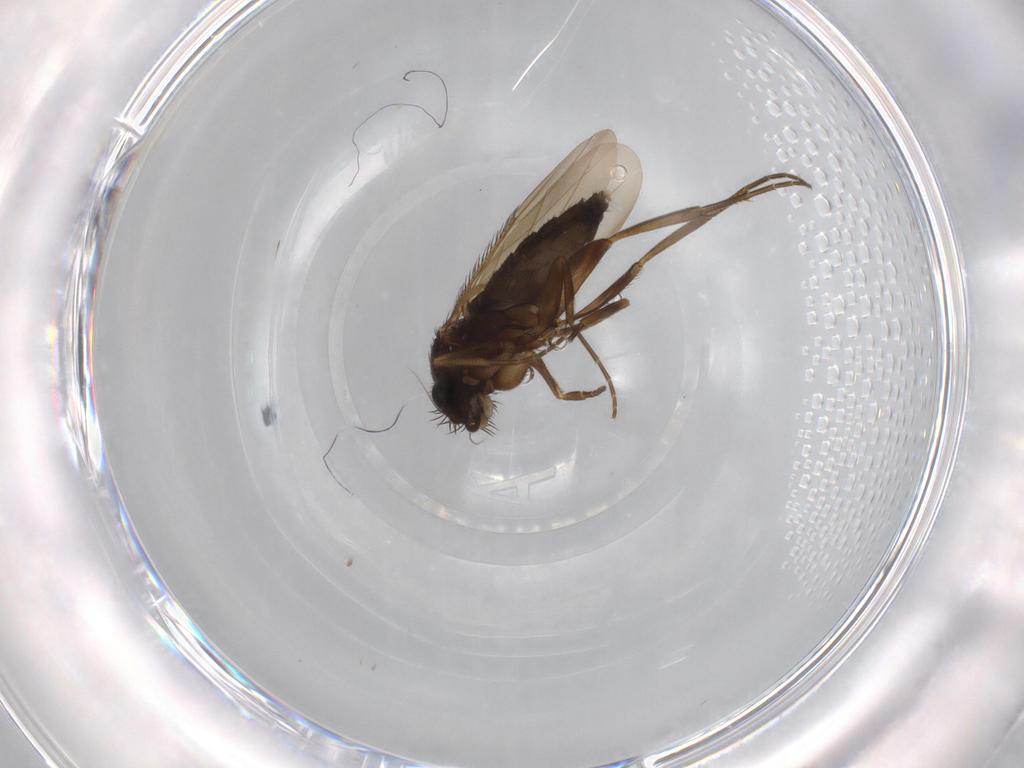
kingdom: Animalia
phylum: Arthropoda
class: Insecta
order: Diptera
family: Phoridae
